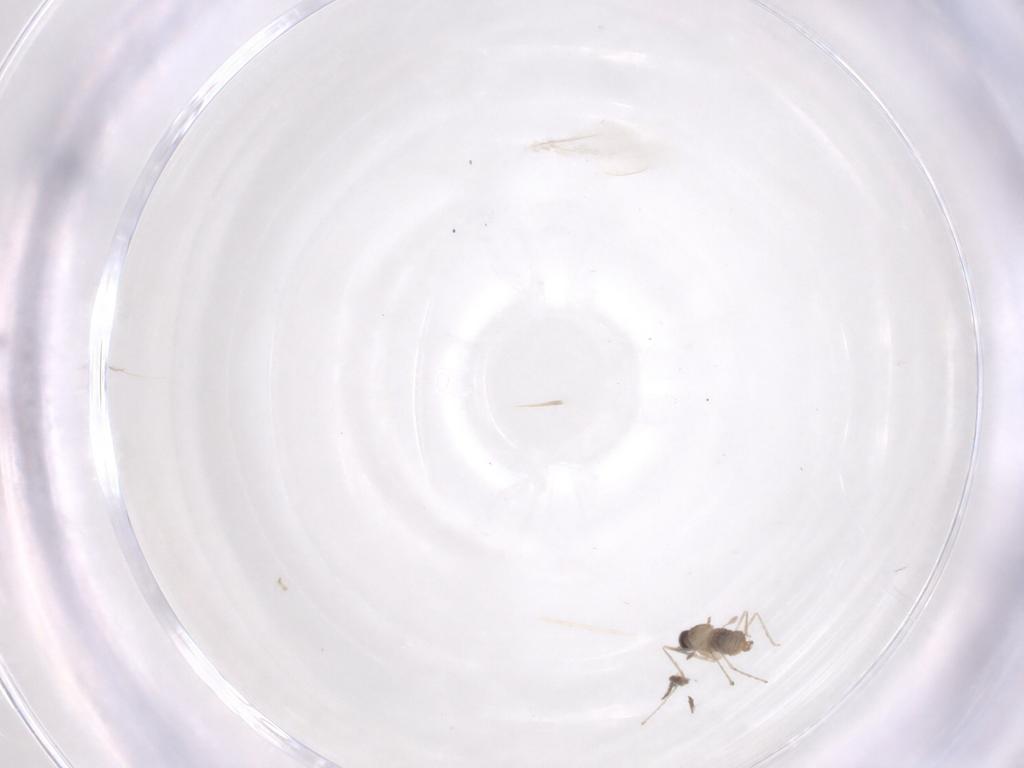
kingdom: Animalia
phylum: Arthropoda
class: Insecta
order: Diptera
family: Cecidomyiidae
